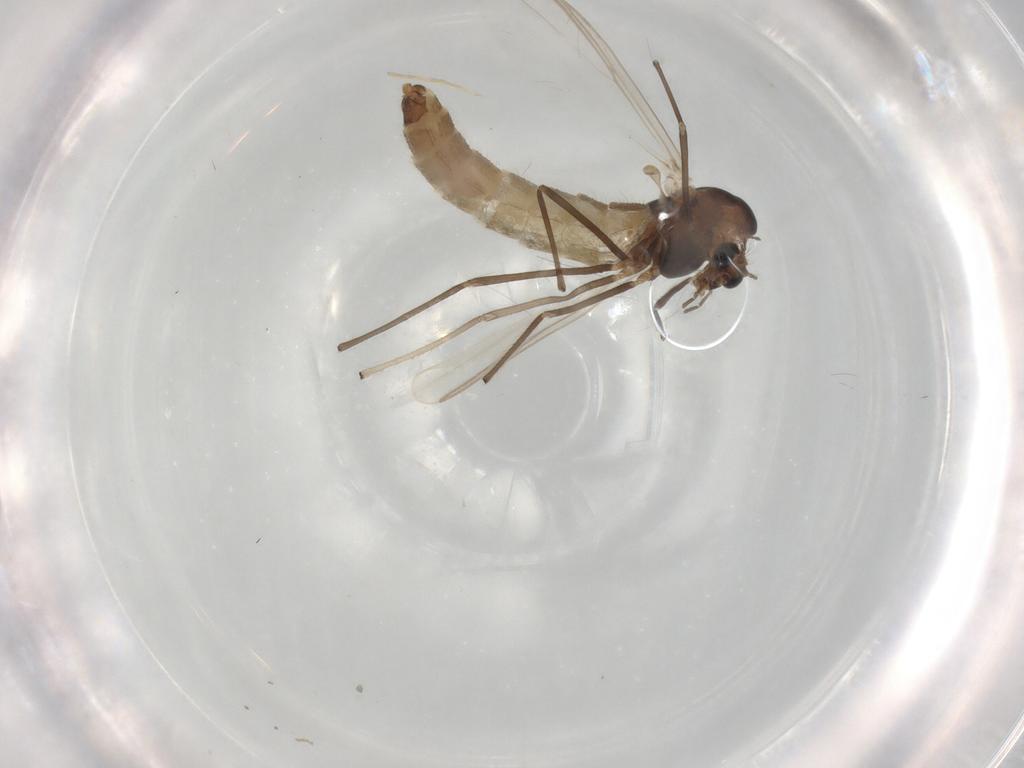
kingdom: Animalia
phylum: Arthropoda
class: Insecta
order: Diptera
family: Chironomidae
